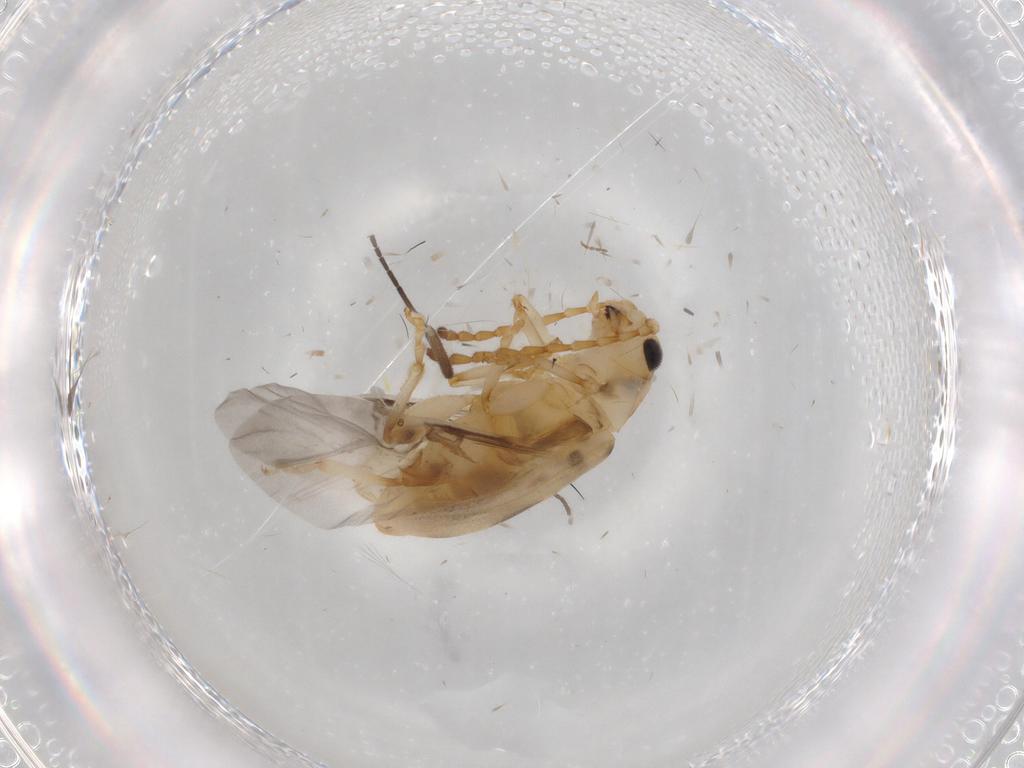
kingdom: Animalia
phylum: Arthropoda
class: Insecta
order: Coleoptera
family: Chrysomelidae
